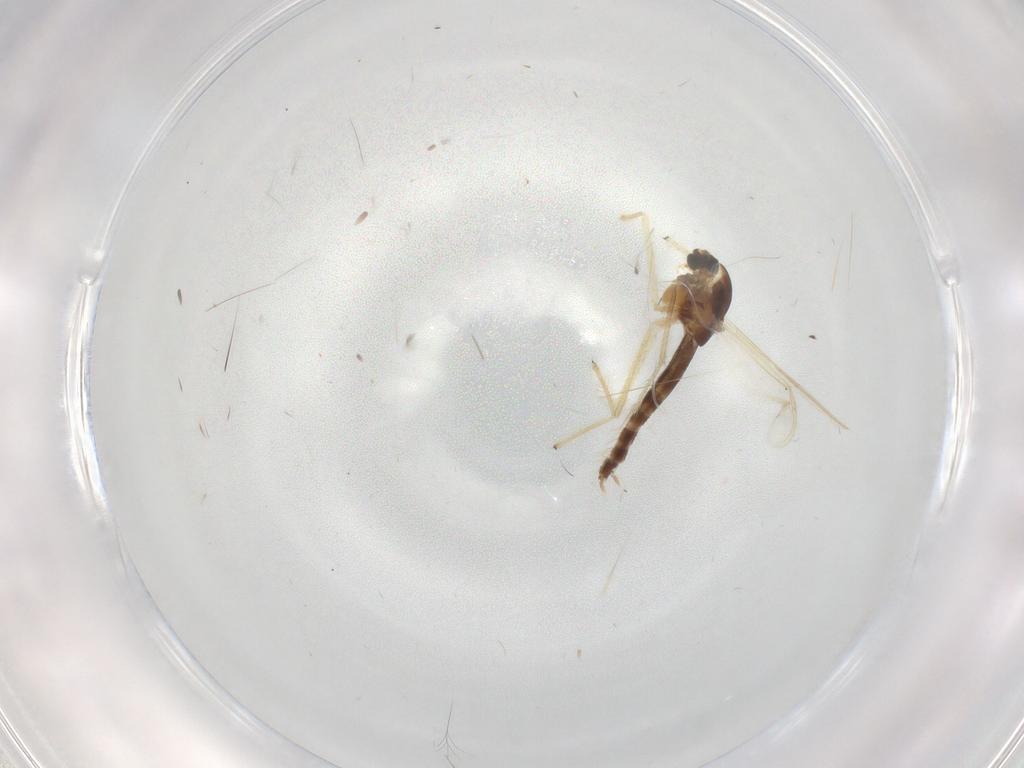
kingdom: Animalia
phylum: Arthropoda
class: Insecta
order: Diptera
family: Chironomidae
